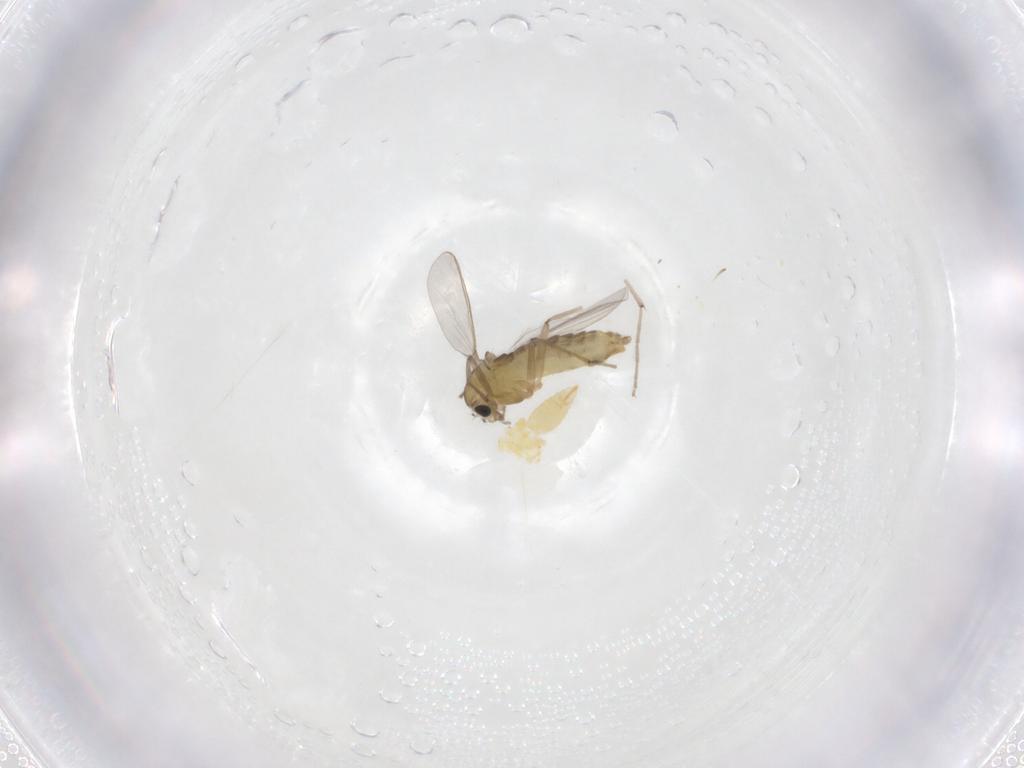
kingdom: Animalia
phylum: Arthropoda
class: Insecta
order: Diptera
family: Chironomidae
